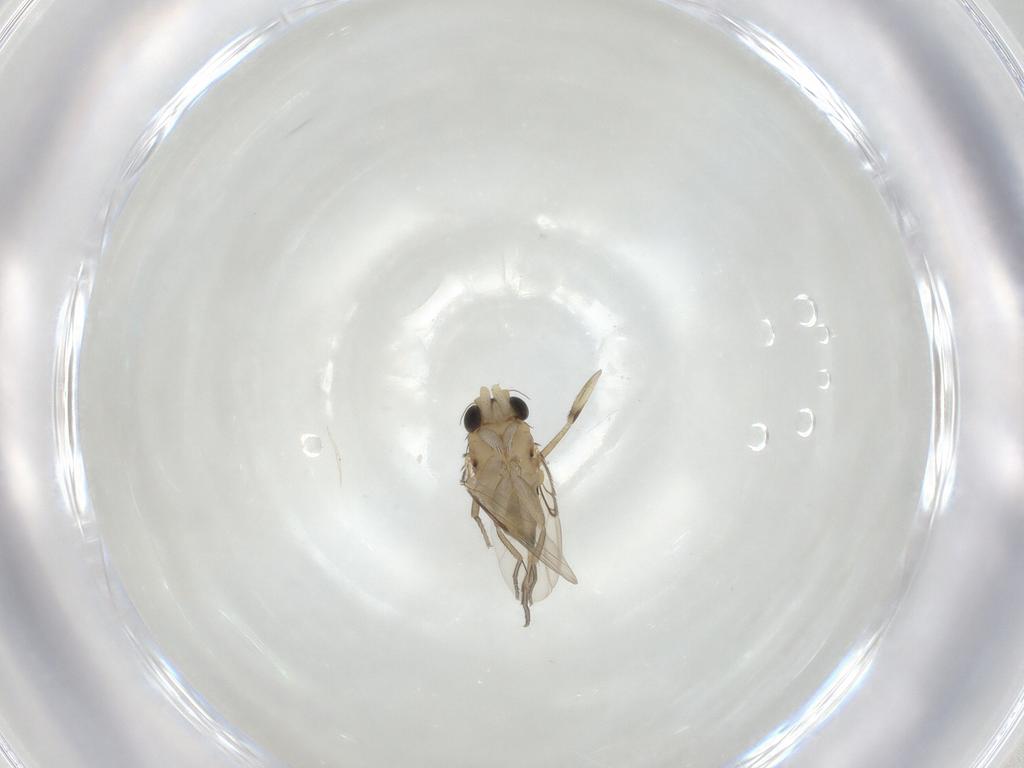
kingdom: Animalia
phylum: Arthropoda
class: Insecta
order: Diptera
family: Phoridae
